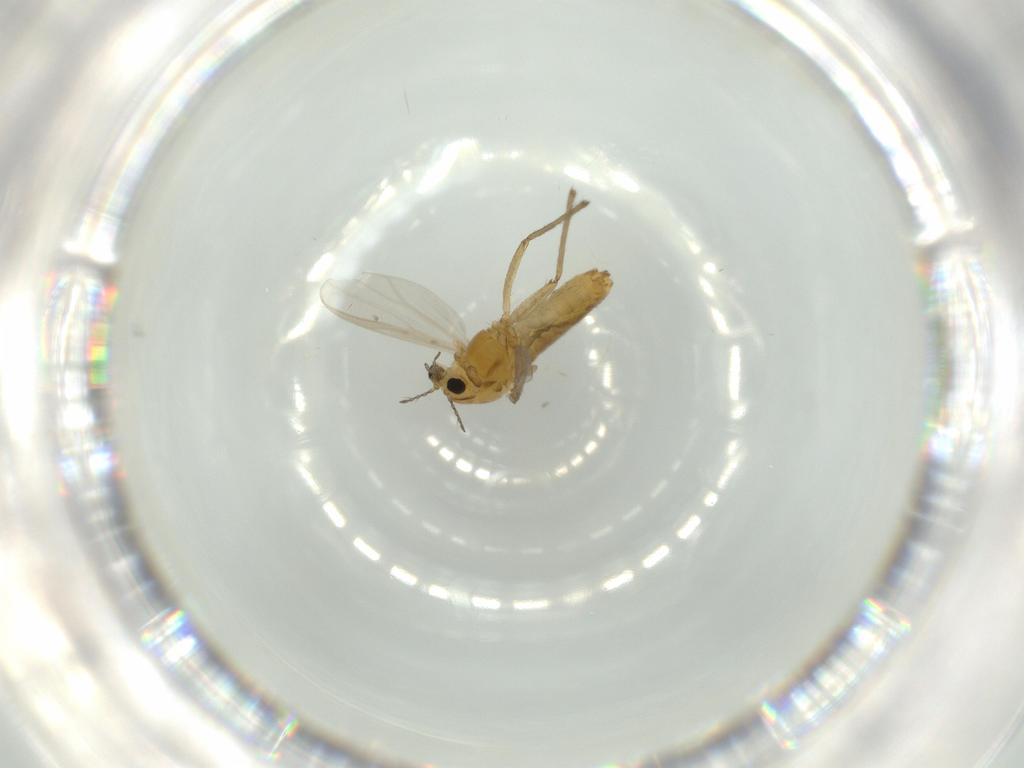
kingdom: Animalia
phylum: Arthropoda
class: Insecta
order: Diptera
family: Chironomidae
